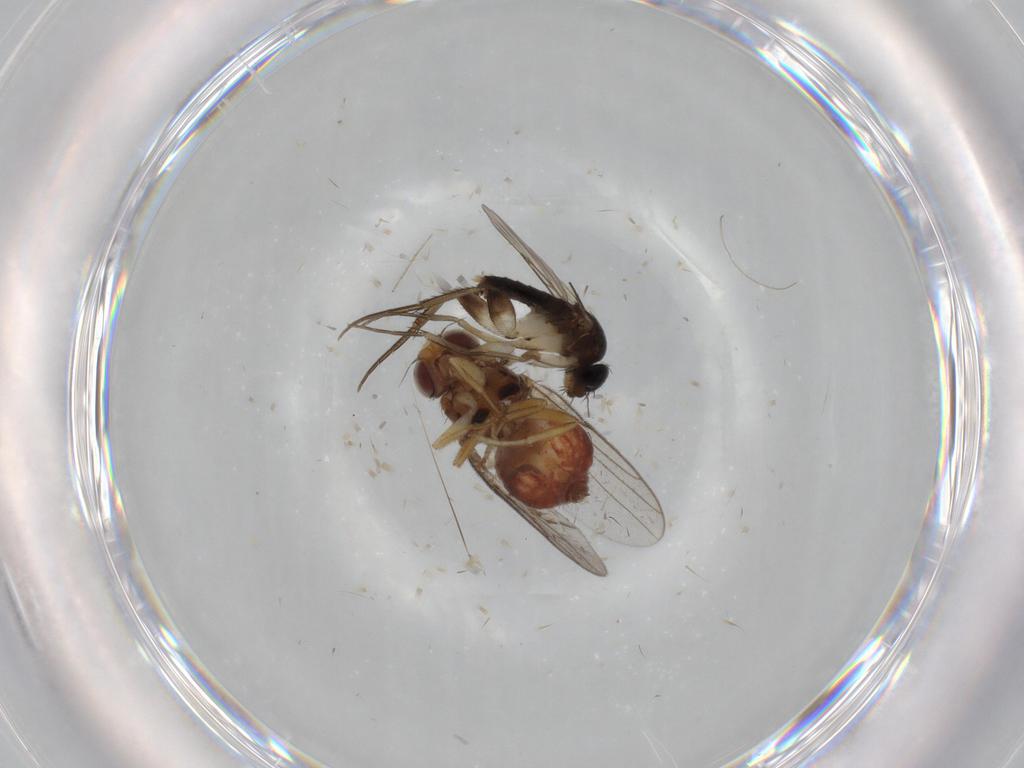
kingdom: Animalia
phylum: Arthropoda
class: Insecta
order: Diptera
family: Chloropidae
